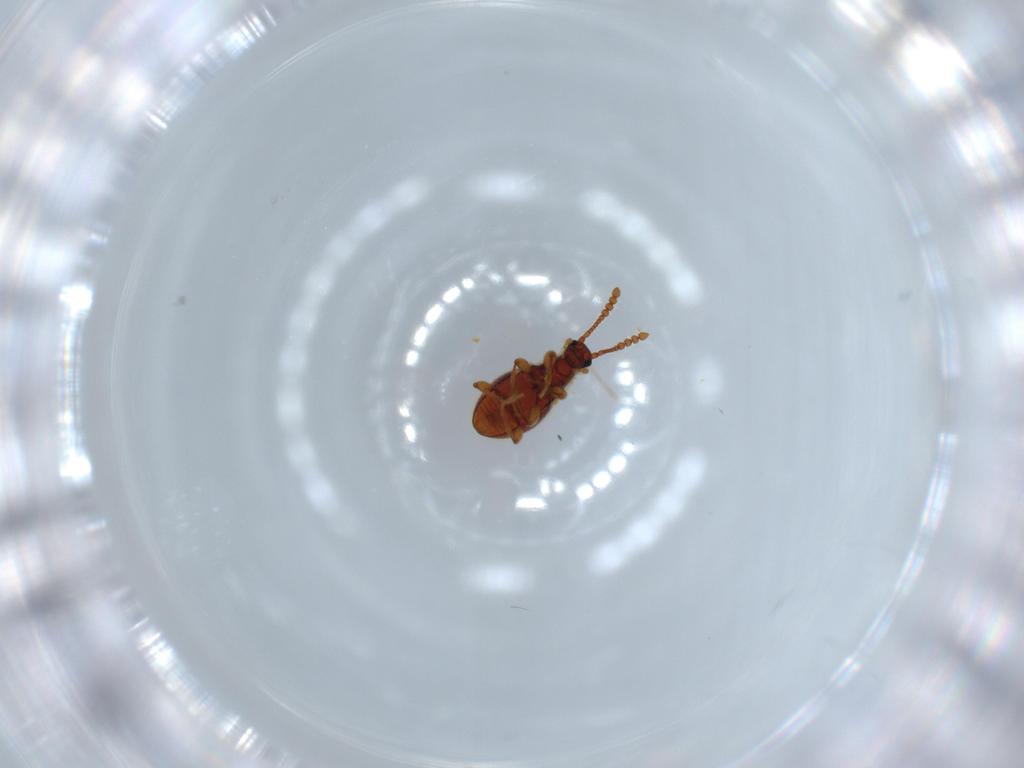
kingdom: Animalia
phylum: Arthropoda
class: Insecta
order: Coleoptera
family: Staphylinidae
